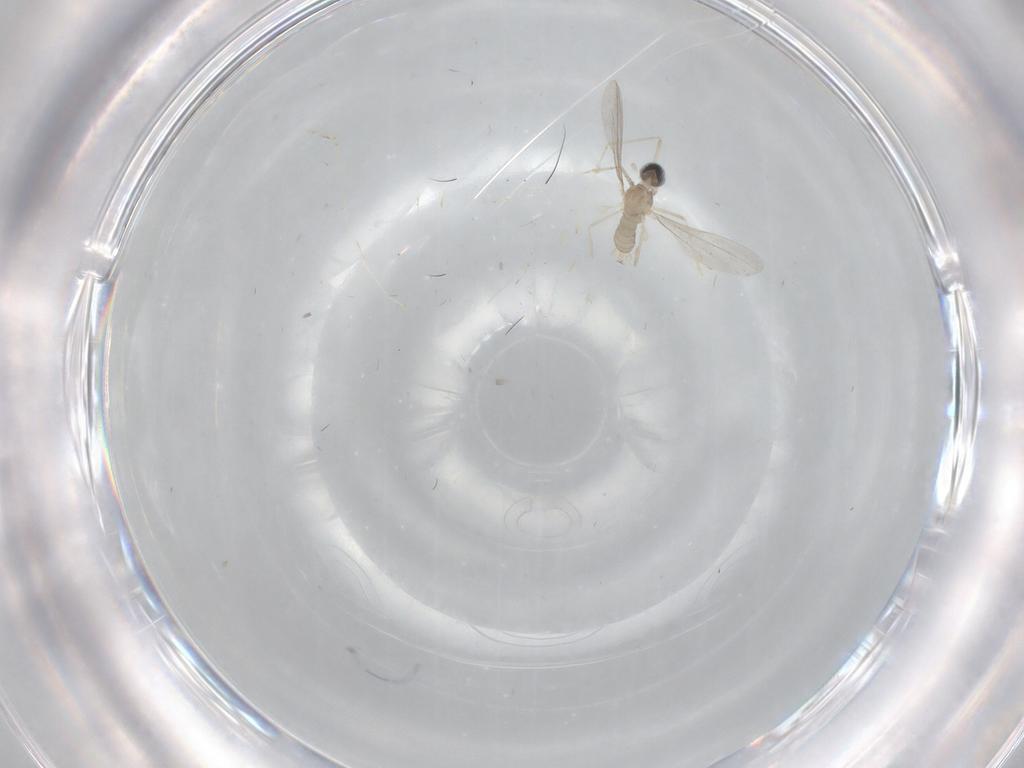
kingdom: Animalia
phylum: Arthropoda
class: Insecta
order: Diptera
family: Cecidomyiidae
